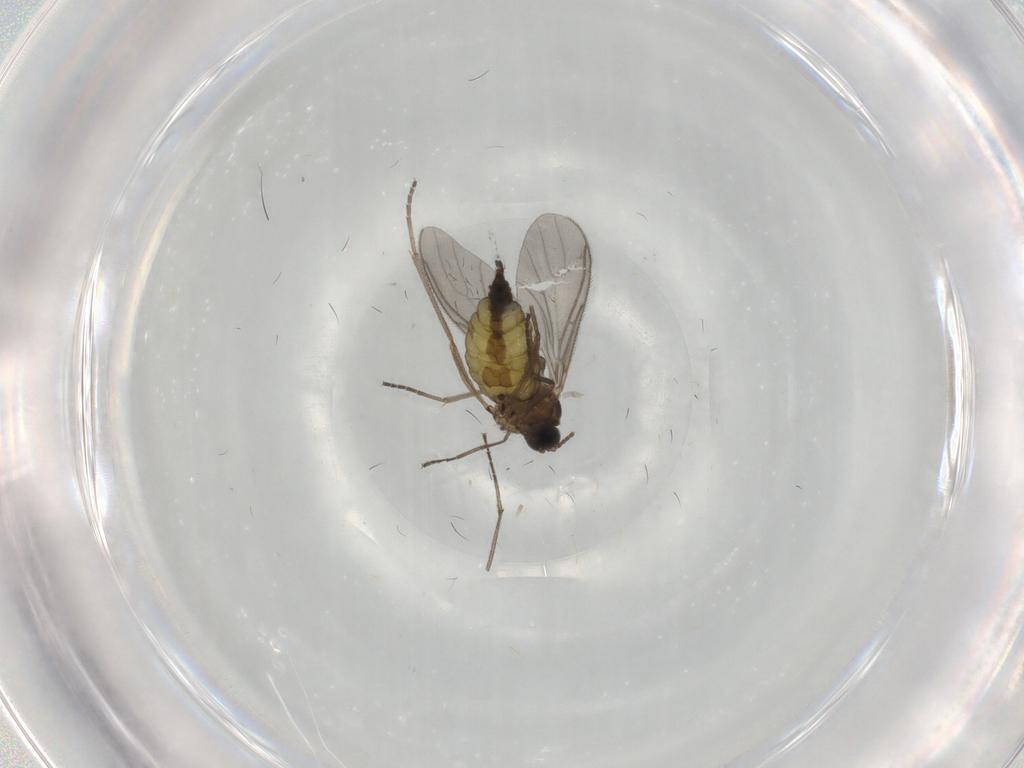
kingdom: Animalia
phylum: Arthropoda
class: Insecta
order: Diptera
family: Sciaridae
